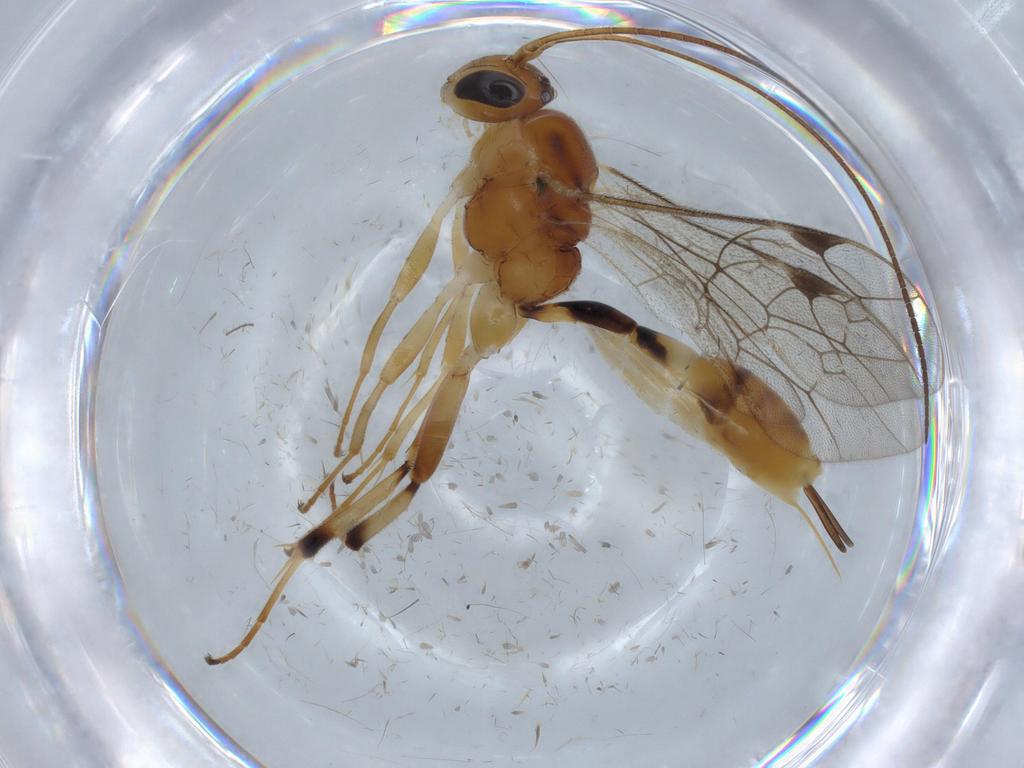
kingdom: Animalia
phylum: Arthropoda
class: Insecta
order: Hymenoptera
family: Ichneumonidae
